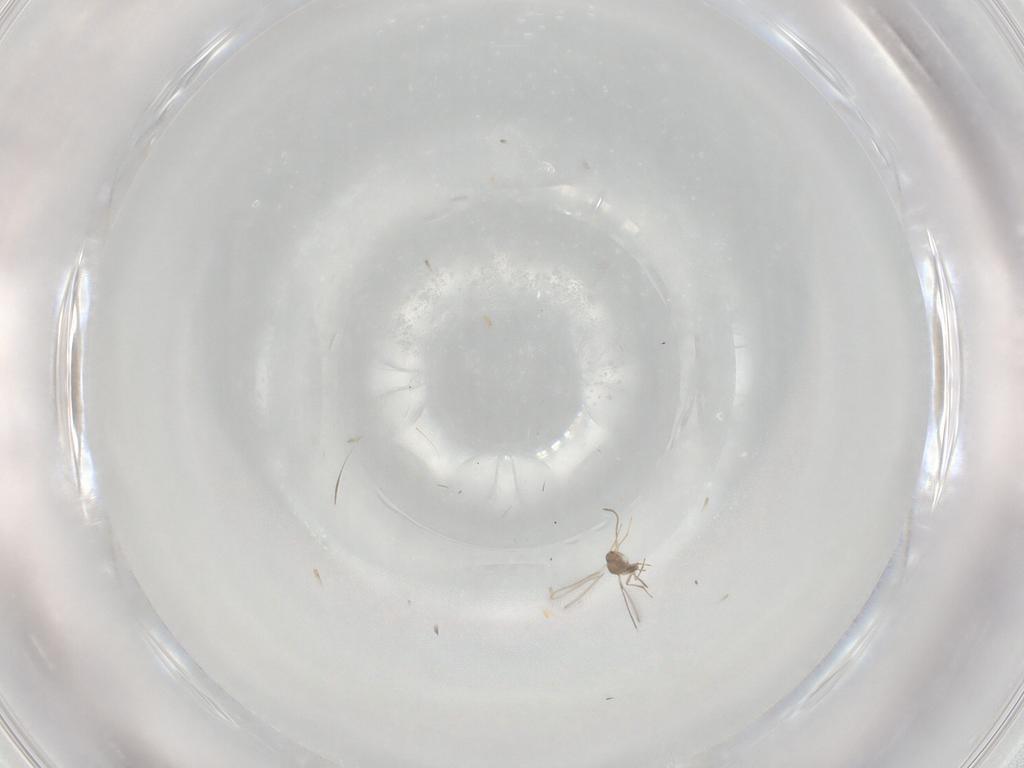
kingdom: Animalia
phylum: Arthropoda
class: Insecta
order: Hymenoptera
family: Mymaridae
